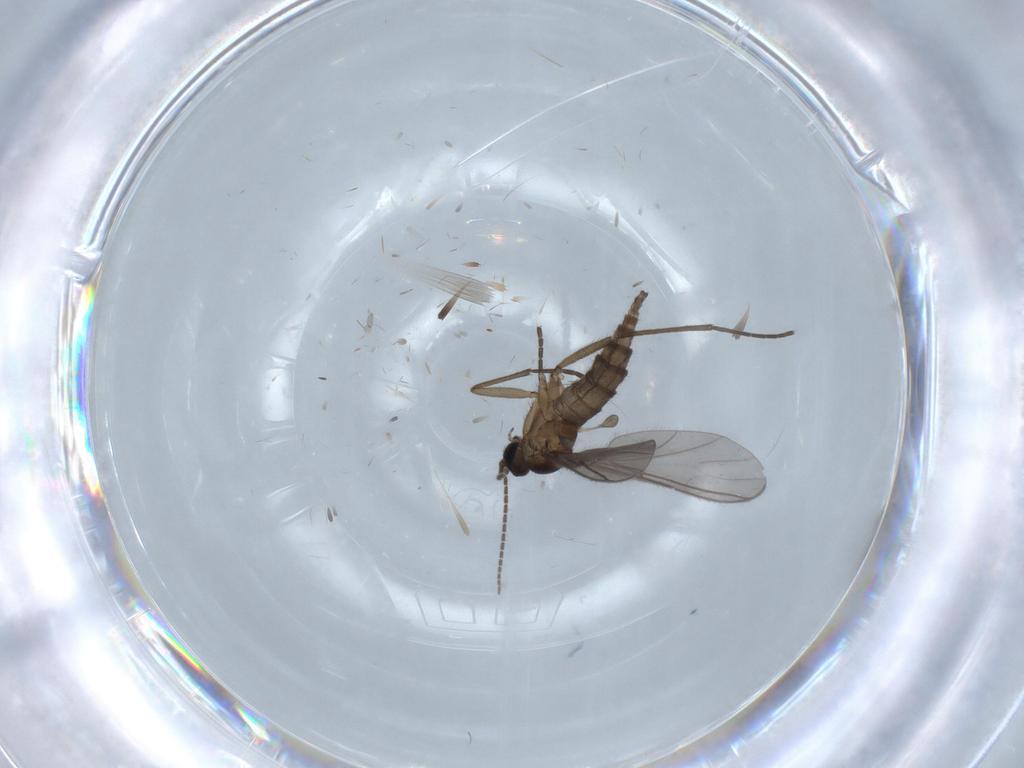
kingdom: Animalia
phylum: Arthropoda
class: Insecta
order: Diptera
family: Sciaridae
